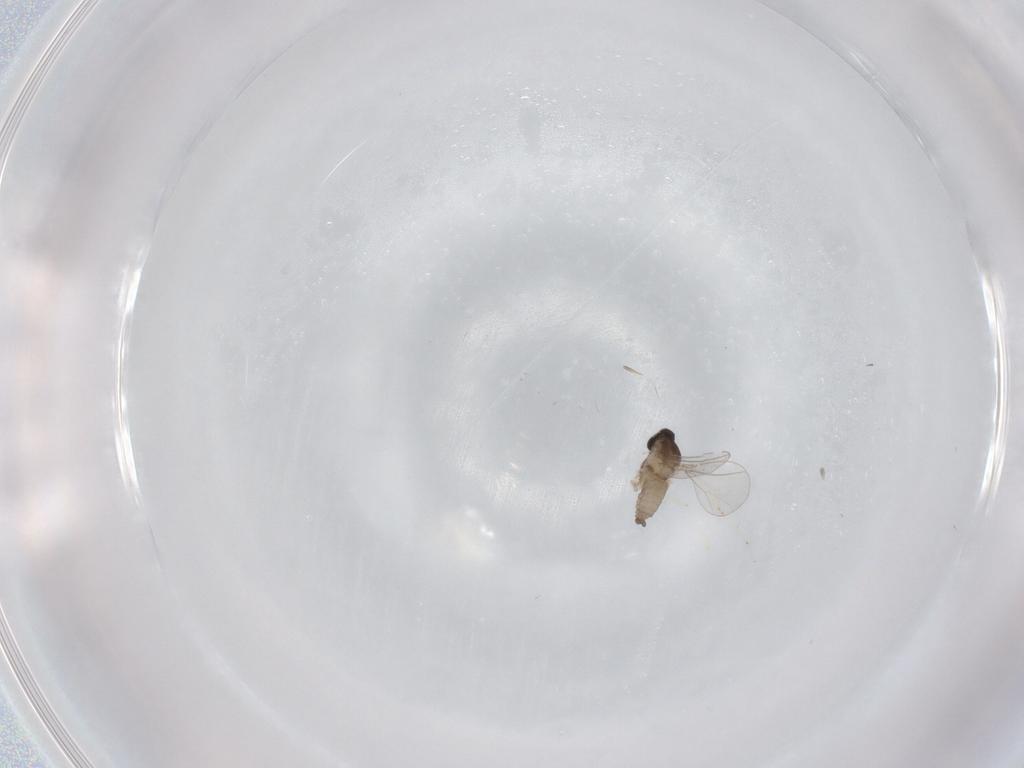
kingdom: Animalia
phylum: Arthropoda
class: Insecta
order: Diptera
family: Cecidomyiidae
